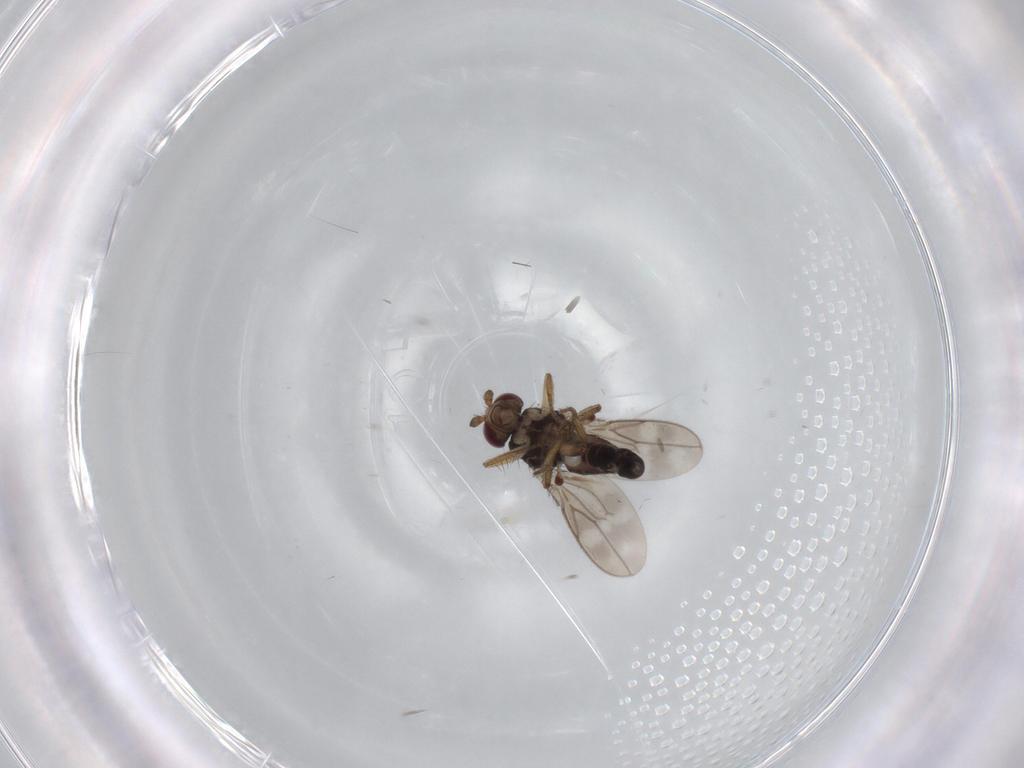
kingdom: Animalia
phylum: Arthropoda
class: Insecta
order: Diptera
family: Sphaeroceridae
